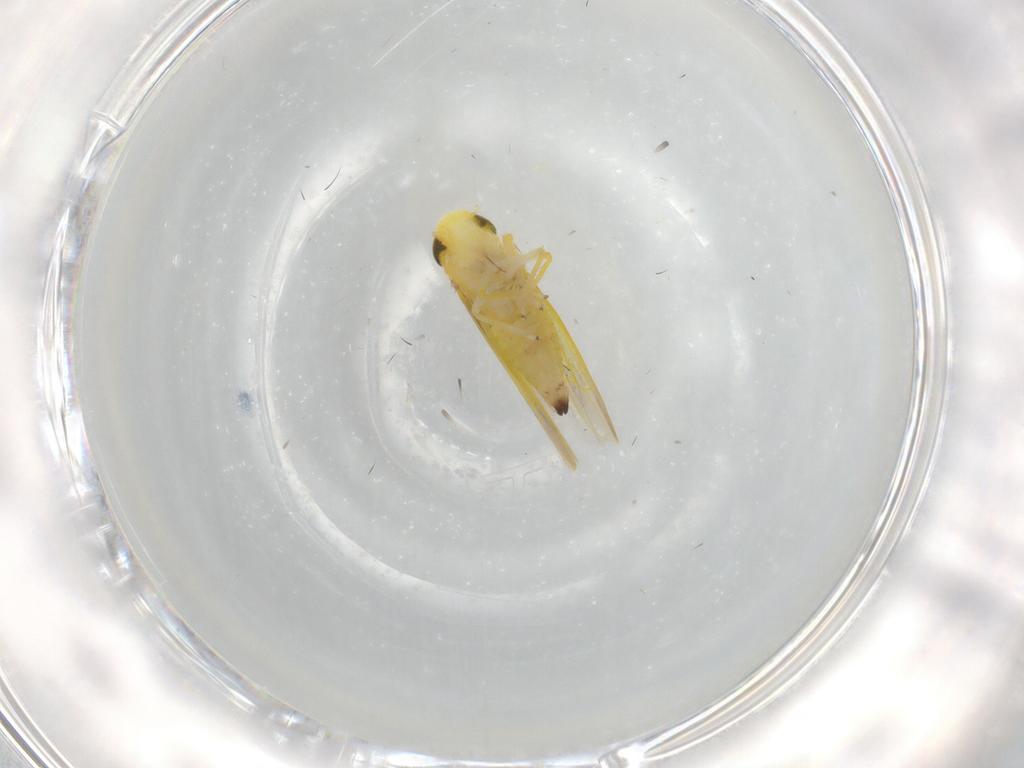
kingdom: Animalia
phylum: Arthropoda
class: Insecta
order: Hemiptera
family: Cicadellidae
